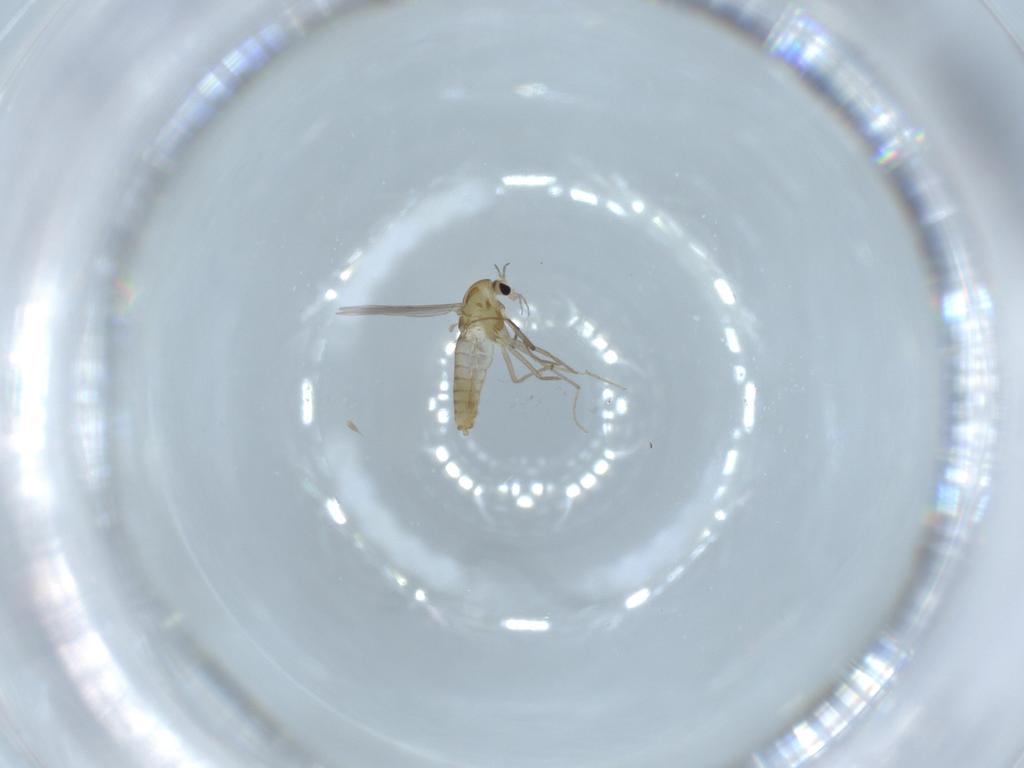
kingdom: Animalia
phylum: Arthropoda
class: Insecta
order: Diptera
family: Chironomidae
